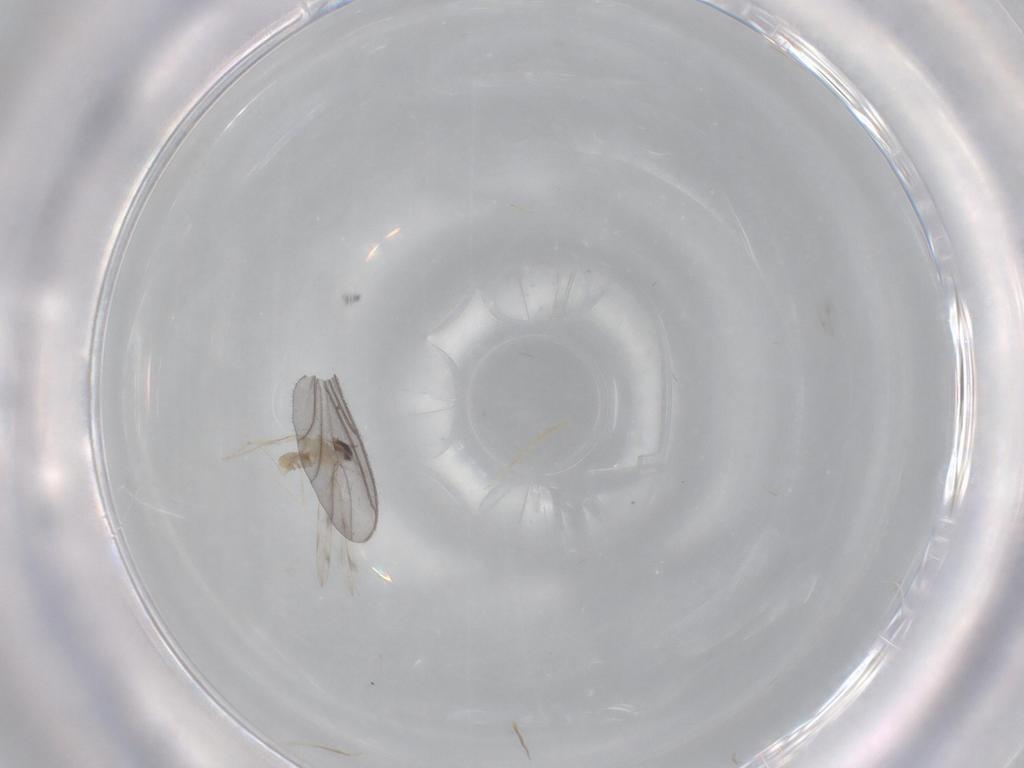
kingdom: Animalia
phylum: Arthropoda
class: Insecta
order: Diptera
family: Cecidomyiidae
